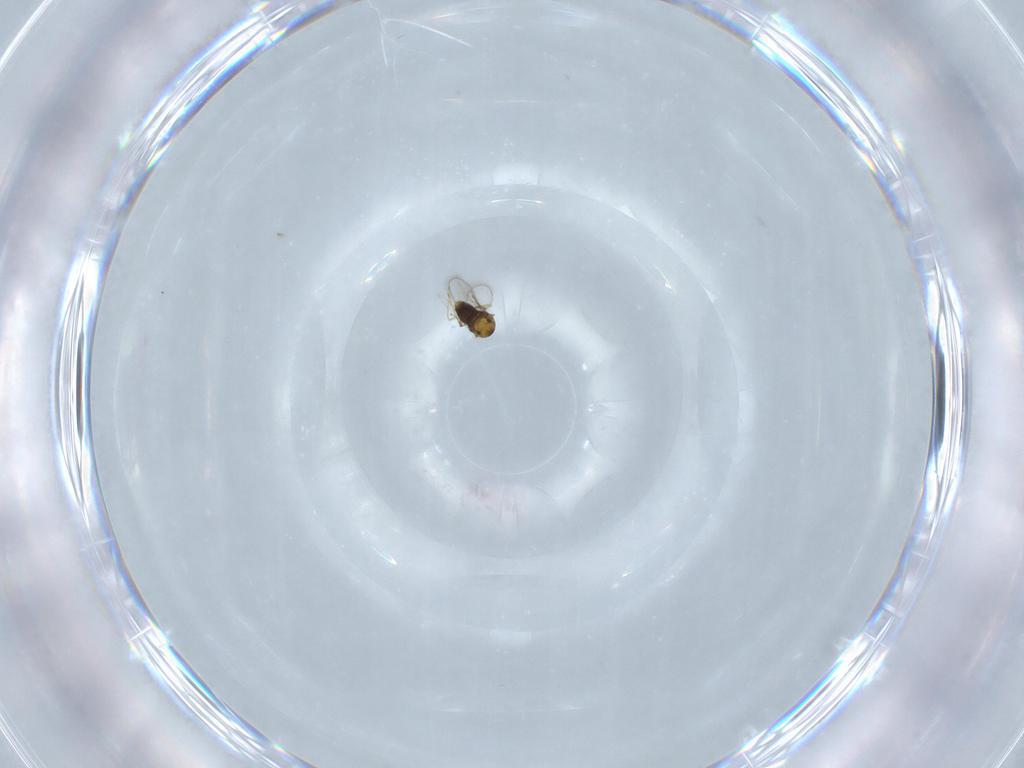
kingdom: Animalia
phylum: Arthropoda
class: Insecta
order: Hymenoptera
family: Aphelinidae
